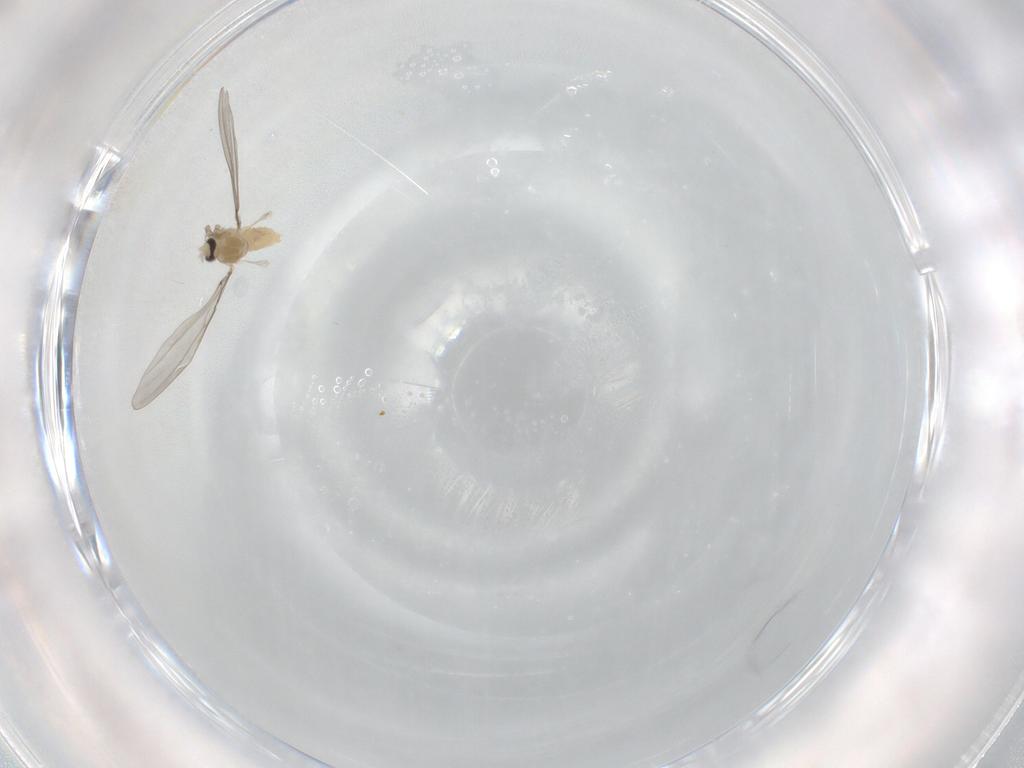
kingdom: Animalia
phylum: Arthropoda
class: Insecta
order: Diptera
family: Cecidomyiidae
